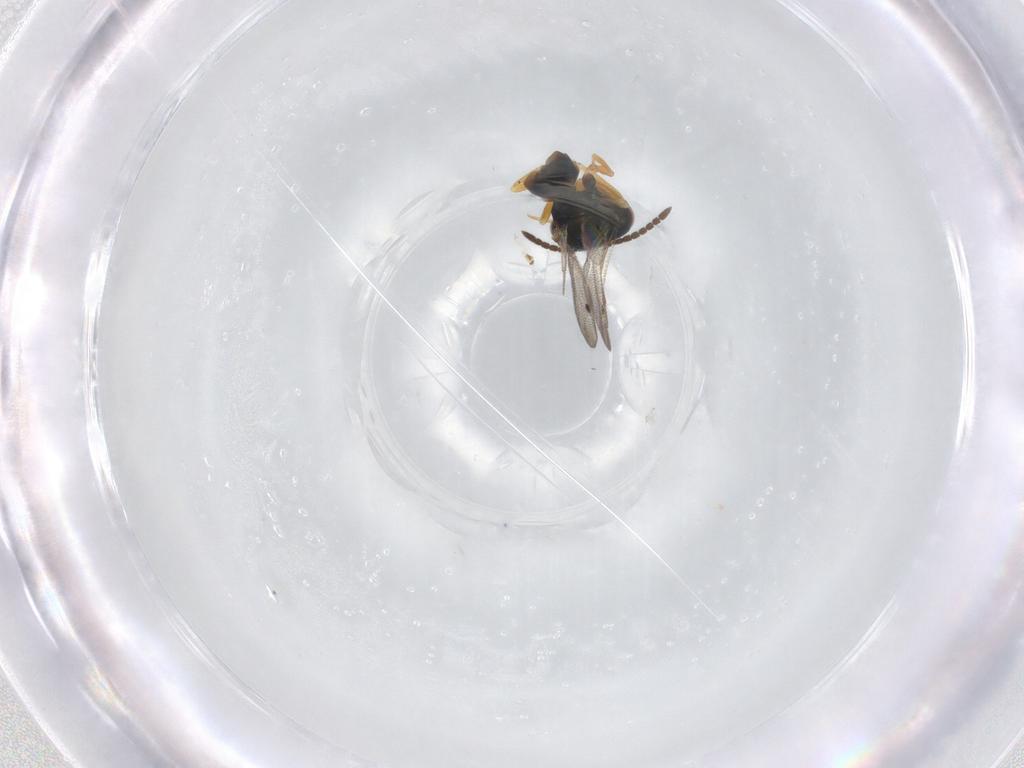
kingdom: Animalia
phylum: Arthropoda
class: Insecta
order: Hymenoptera
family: Pteromalidae
